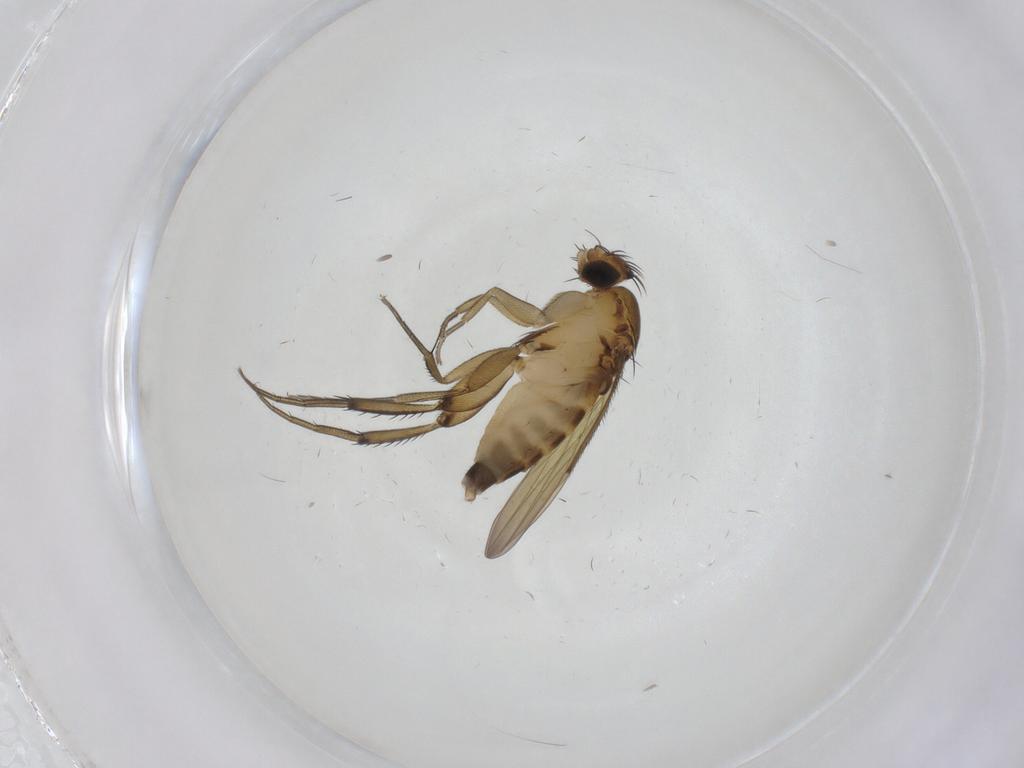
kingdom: Animalia
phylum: Arthropoda
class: Insecta
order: Diptera
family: Phoridae
